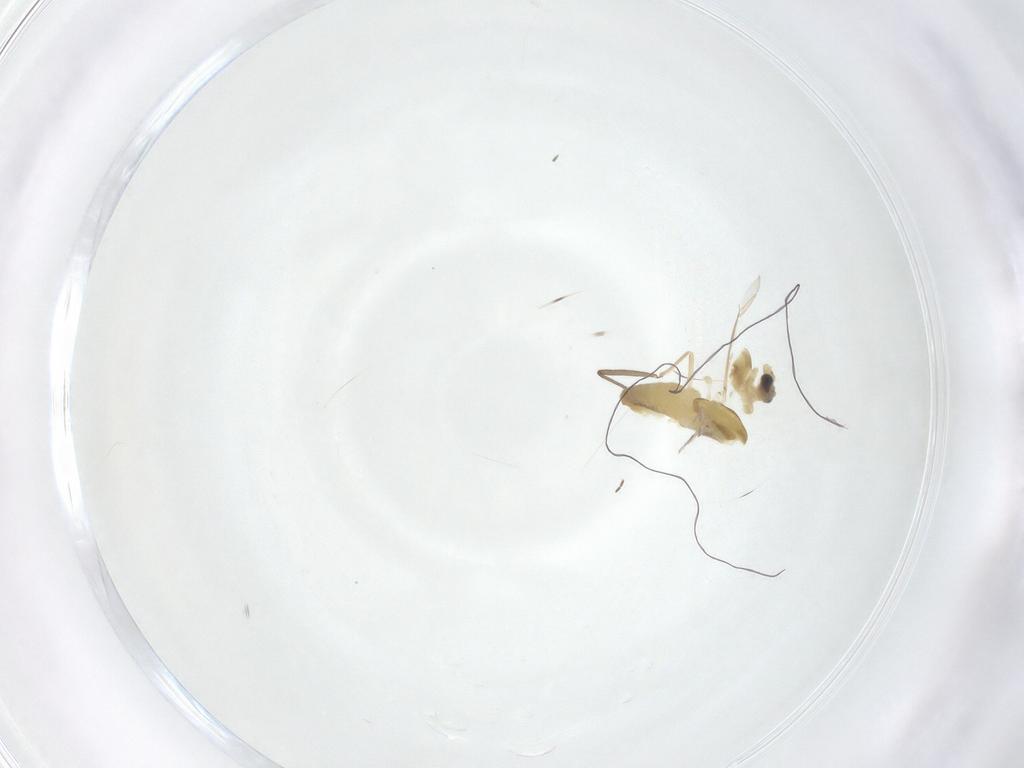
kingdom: Animalia
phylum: Arthropoda
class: Insecta
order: Diptera
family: Chironomidae
